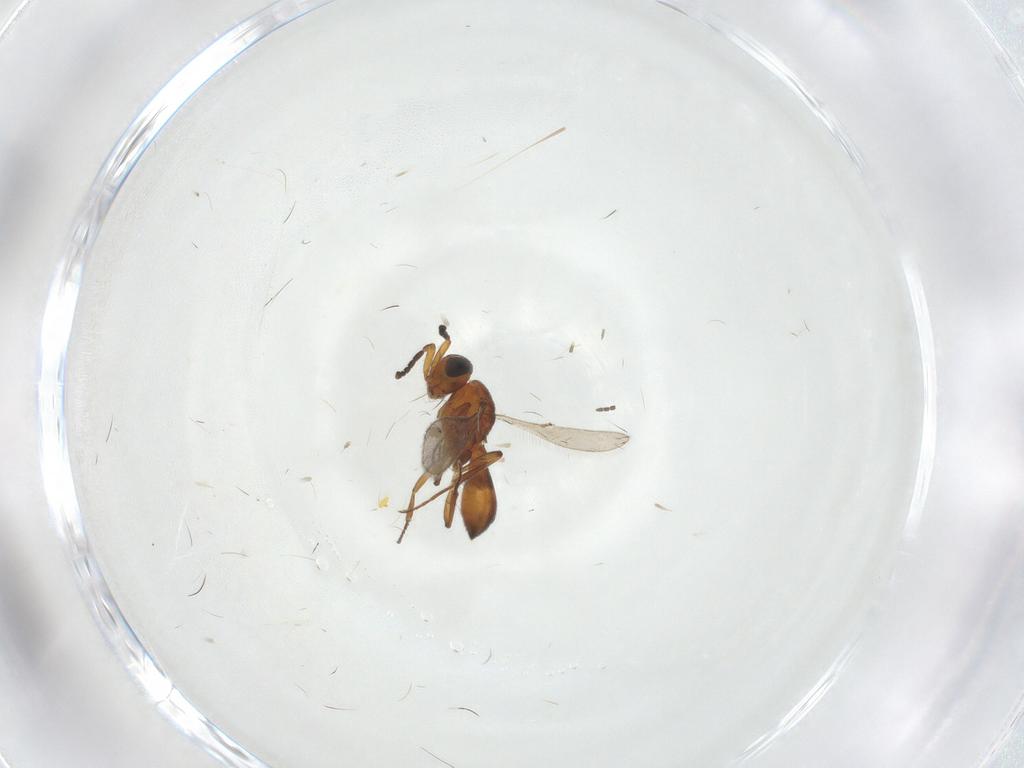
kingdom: Animalia
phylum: Arthropoda
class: Insecta
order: Hymenoptera
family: Scelionidae
